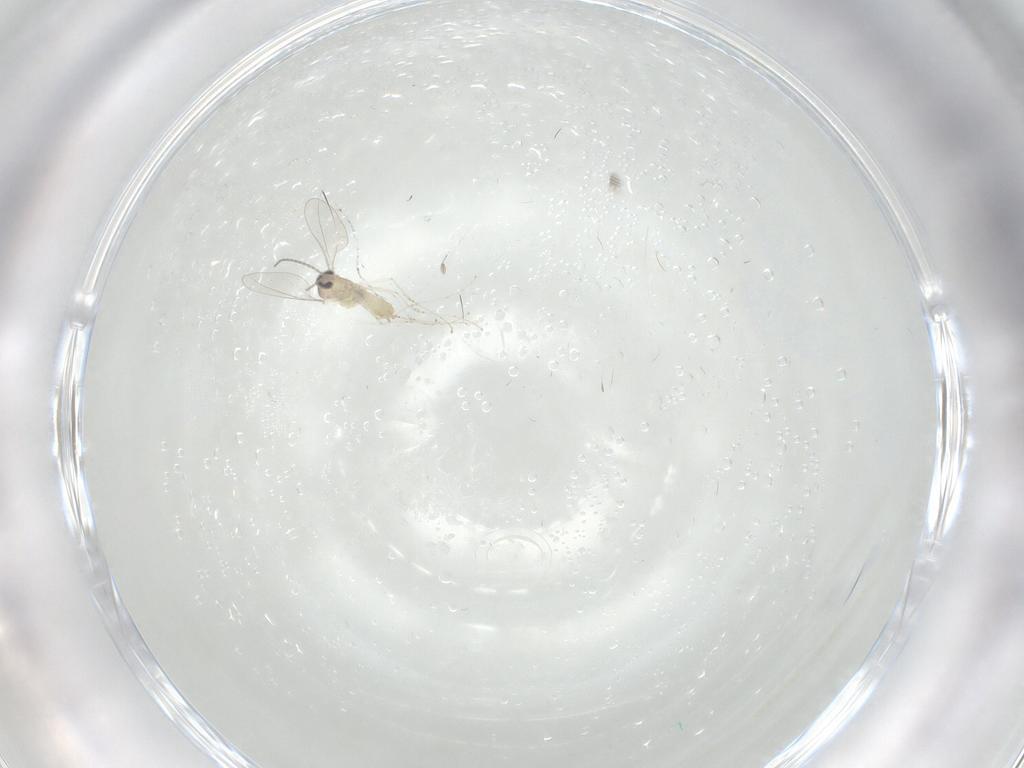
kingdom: Animalia
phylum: Arthropoda
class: Insecta
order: Diptera
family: Cecidomyiidae
